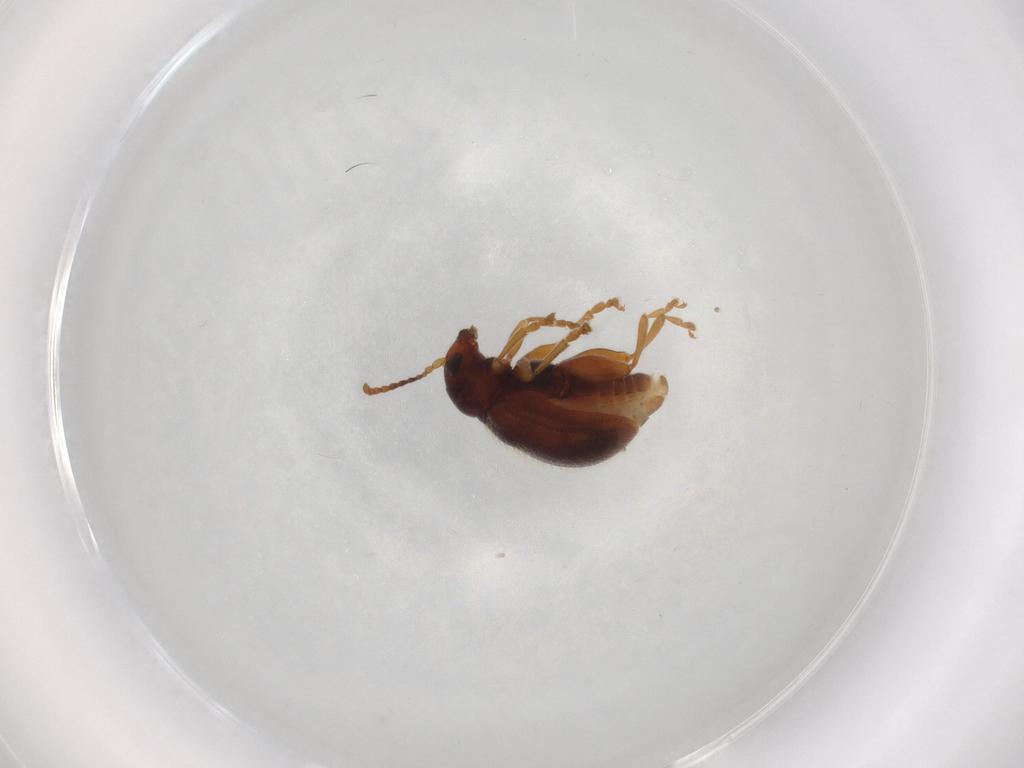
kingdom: Animalia
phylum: Arthropoda
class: Insecta
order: Coleoptera
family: Chrysomelidae
